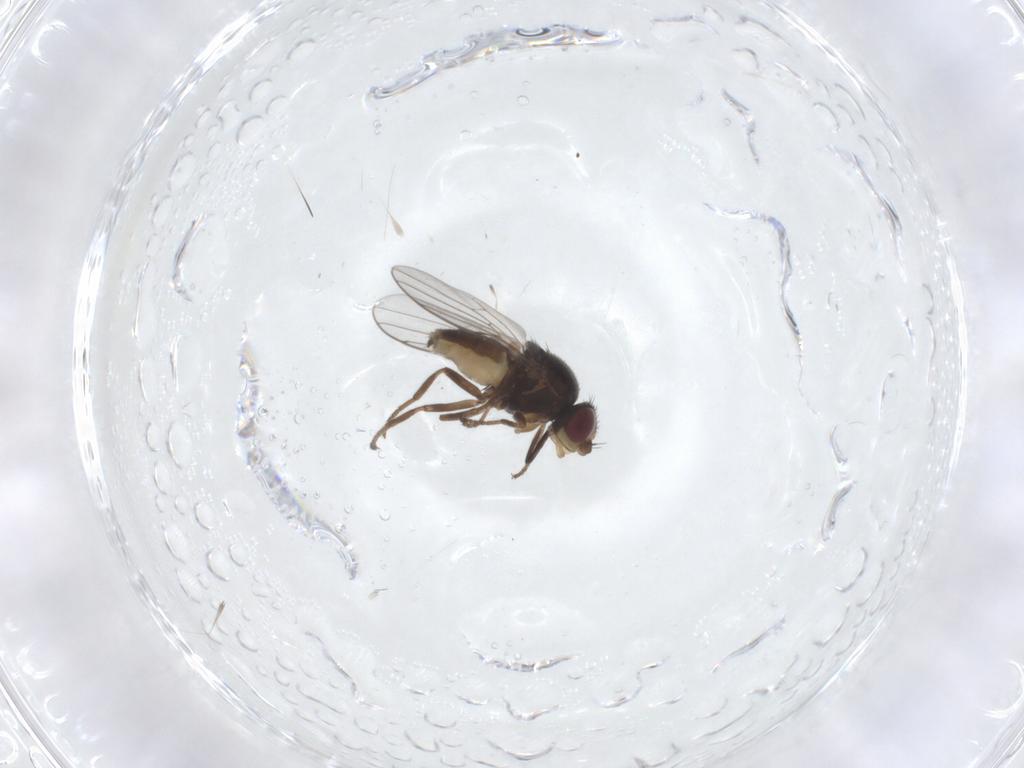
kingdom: Animalia
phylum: Arthropoda
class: Insecta
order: Diptera
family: Chloropidae
